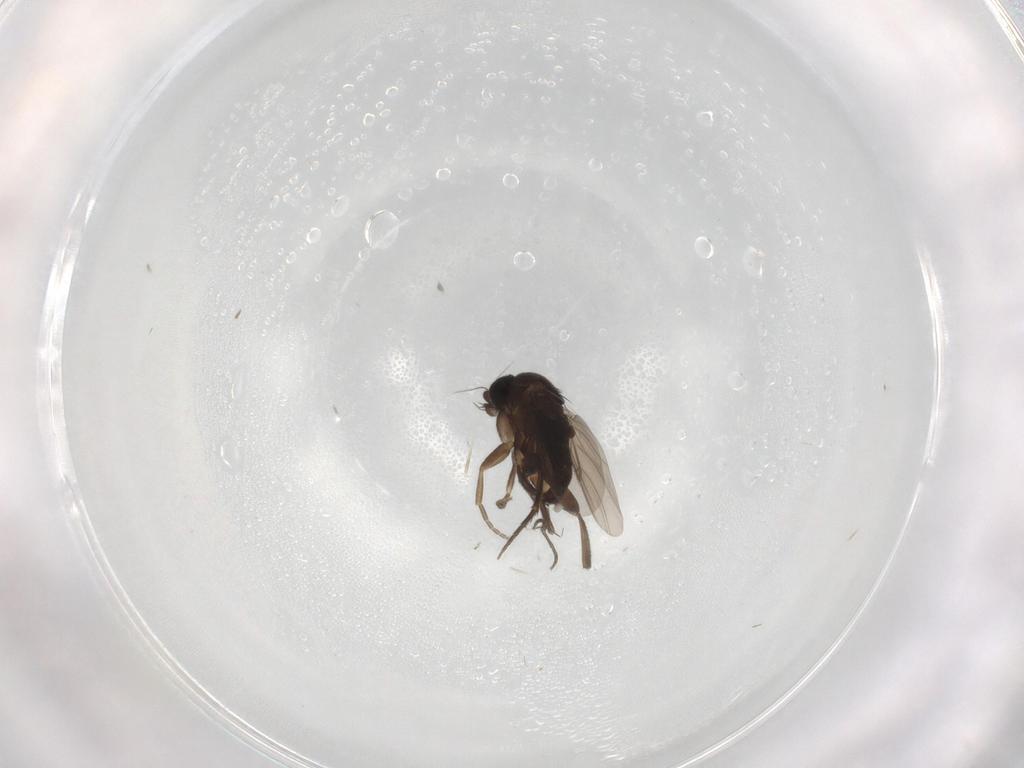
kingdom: Animalia
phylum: Arthropoda
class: Insecta
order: Diptera
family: Phoridae
